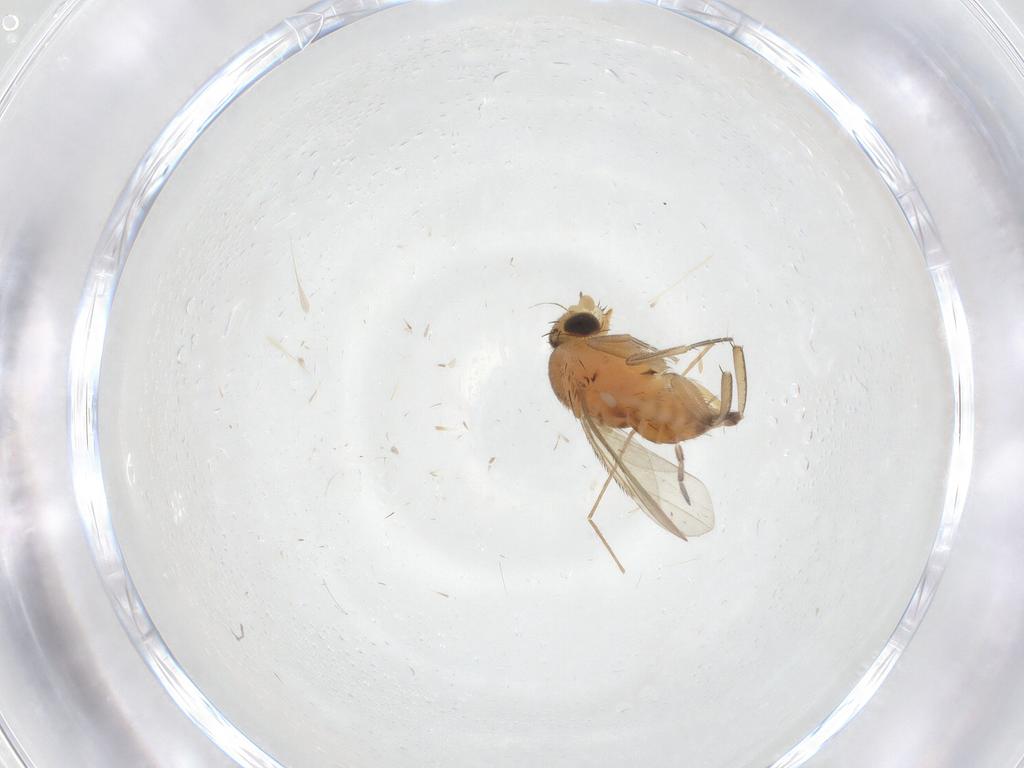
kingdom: Animalia
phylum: Arthropoda
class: Insecta
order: Diptera
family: Phoridae
